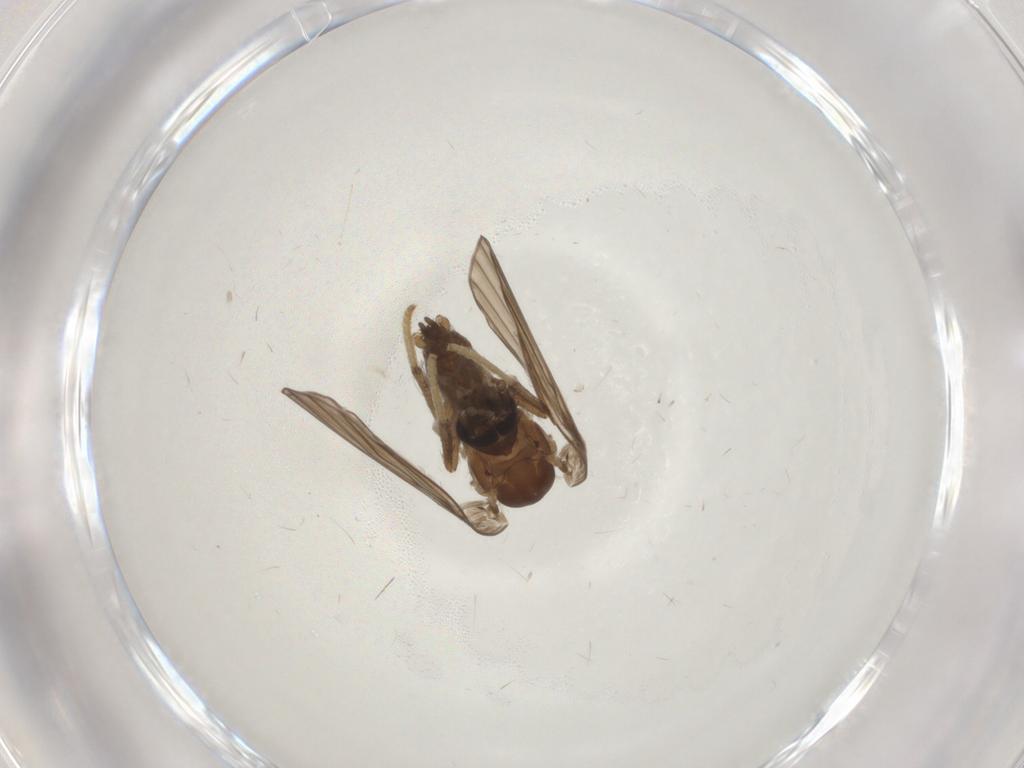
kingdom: Animalia
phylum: Arthropoda
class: Insecta
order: Diptera
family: Psychodidae
